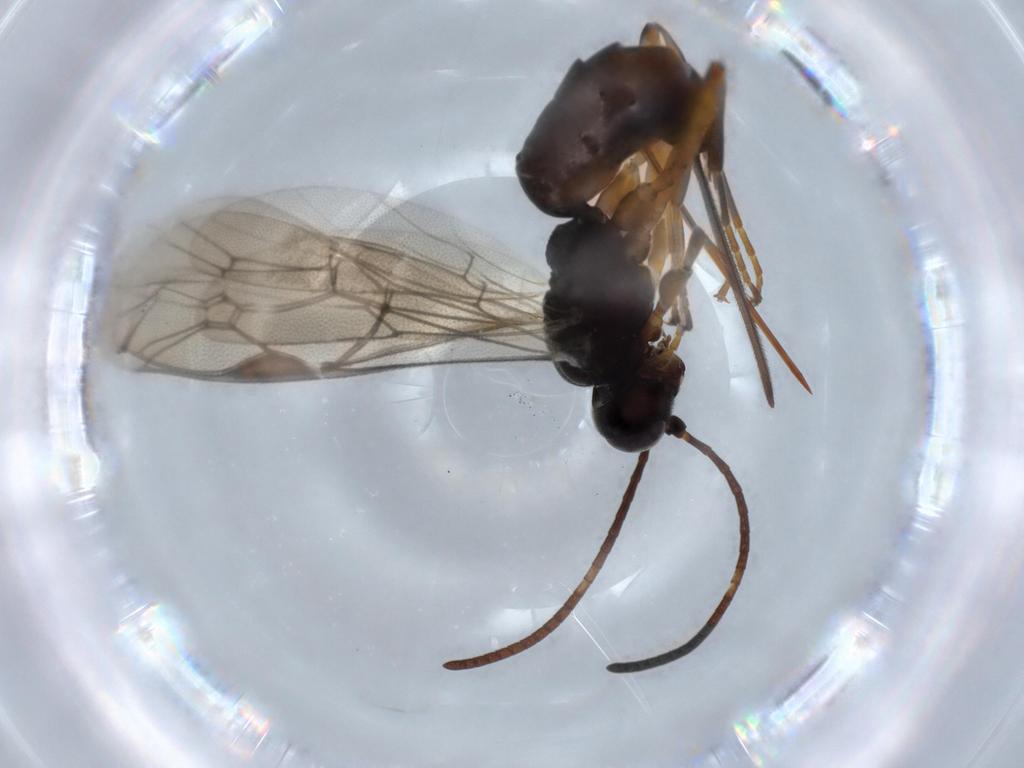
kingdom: Animalia
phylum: Arthropoda
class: Insecta
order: Hymenoptera
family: Ichneumonidae
